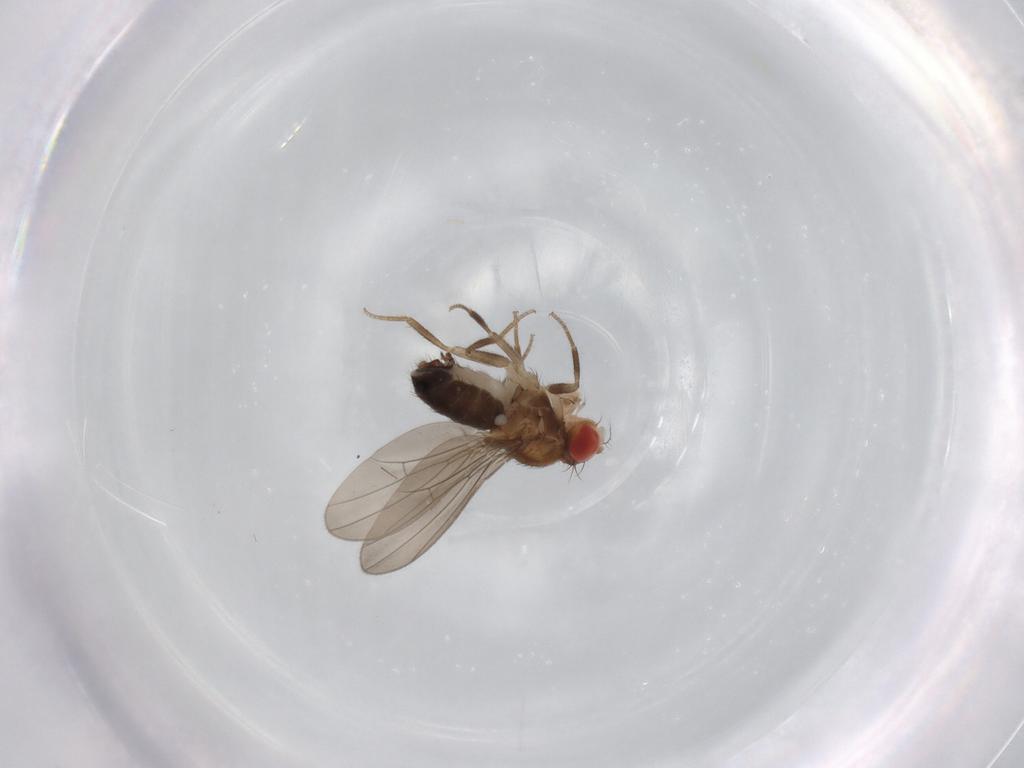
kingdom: Animalia
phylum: Arthropoda
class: Insecta
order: Diptera
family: Drosophilidae
